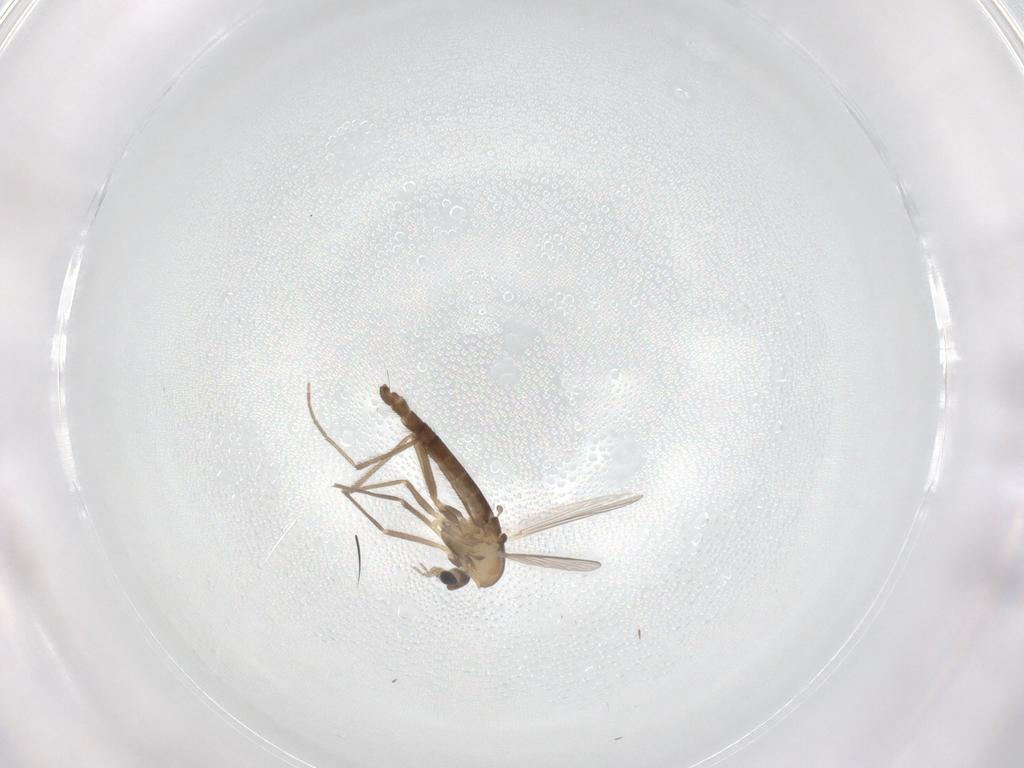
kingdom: Animalia
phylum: Arthropoda
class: Insecta
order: Diptera
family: Chironomidae
